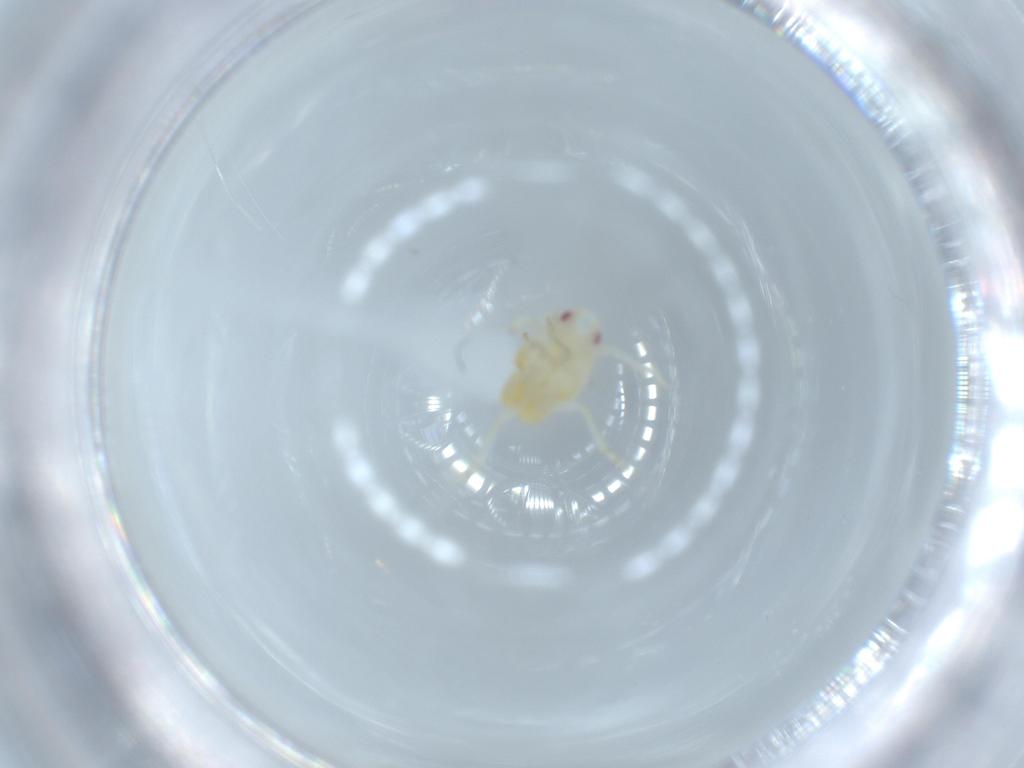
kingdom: Animalia
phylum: Arthropoda
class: Insecta
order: Hemiptera
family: Flatidae
